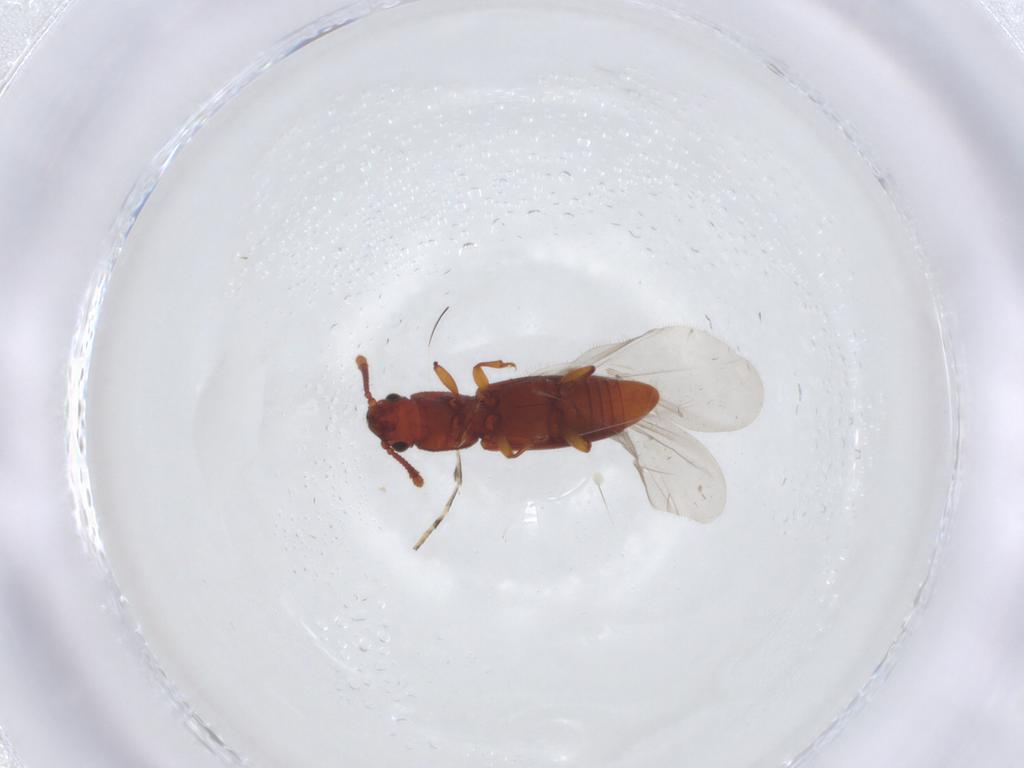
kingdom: Animalia
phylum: Arthropoda
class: Insecta
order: Coleoptera
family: Monotomidae
